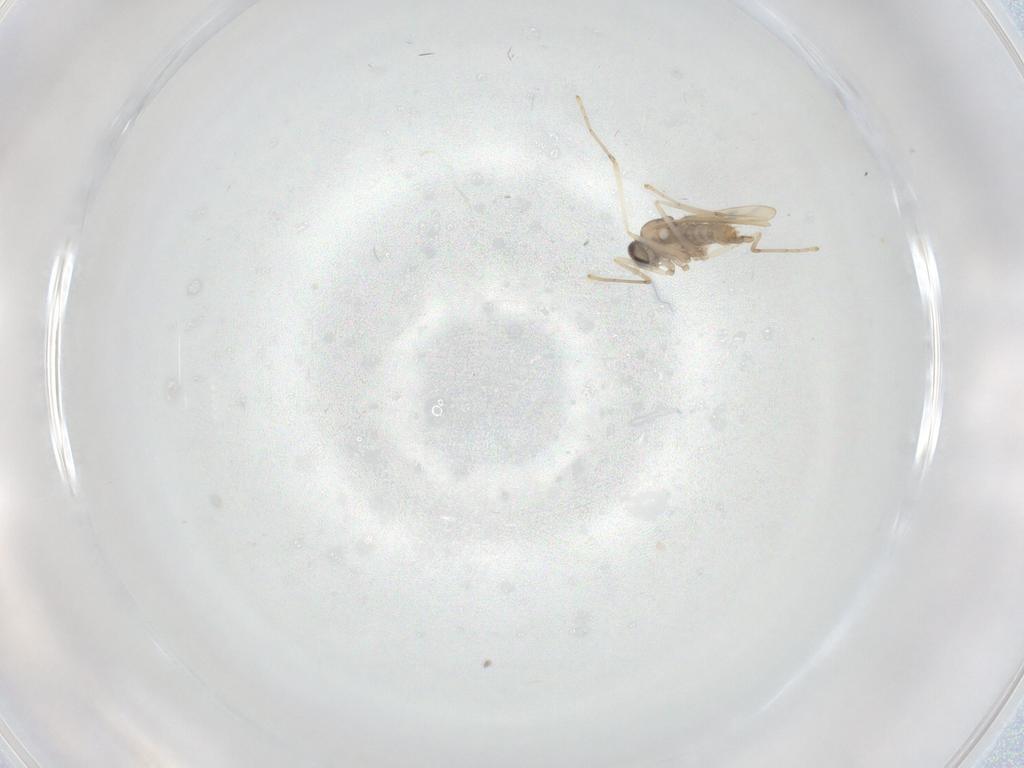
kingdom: Animalia
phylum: Arthropoda
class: Insecta
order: Diptera
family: Cecidomyiidae
